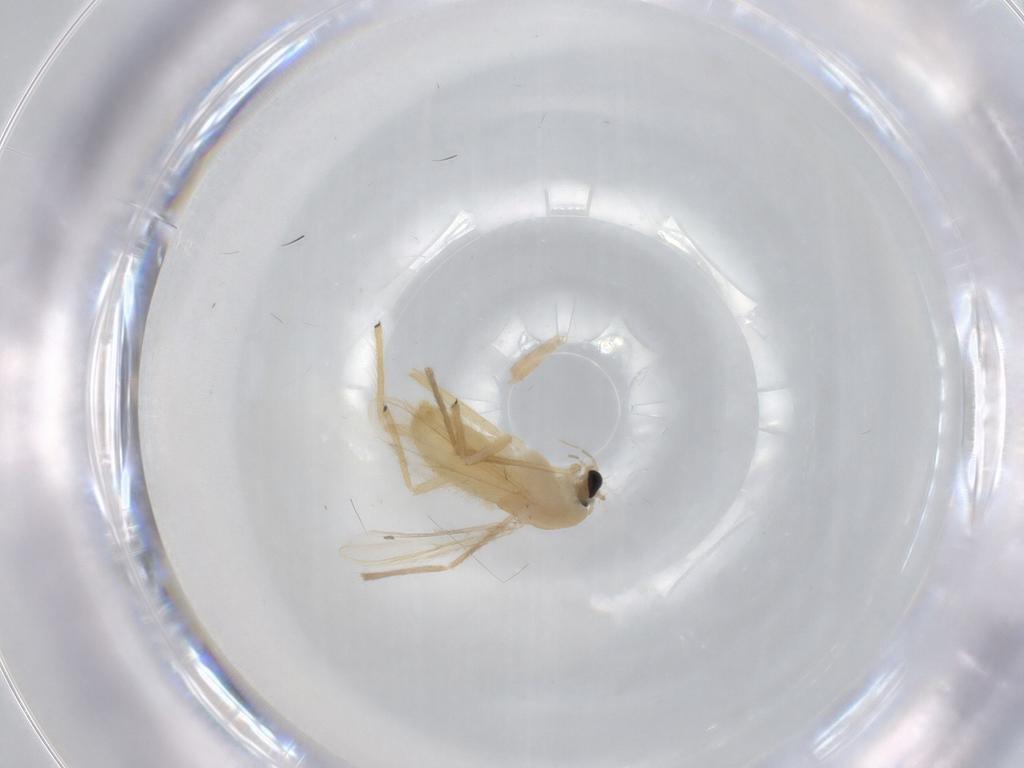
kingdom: Animalia
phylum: Arthropoda
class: Insecta
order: Diptera
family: Chironomidae
